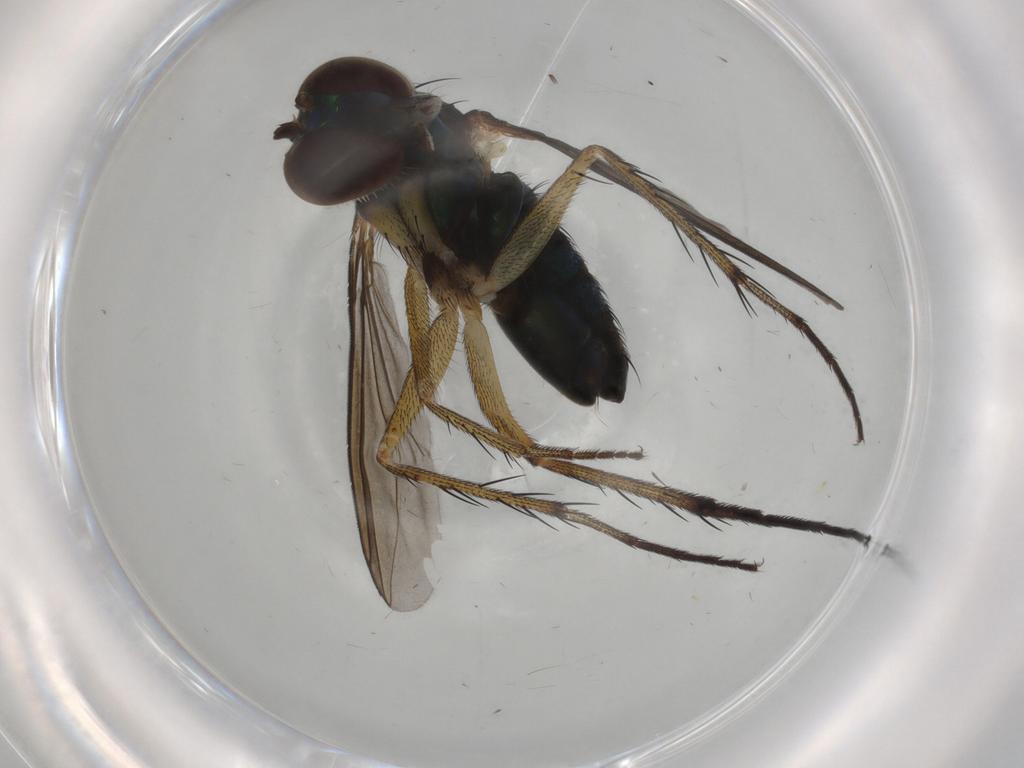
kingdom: Animalia
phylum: Arthropoda
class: Insecta
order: Diptera
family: Dolichopodidae
